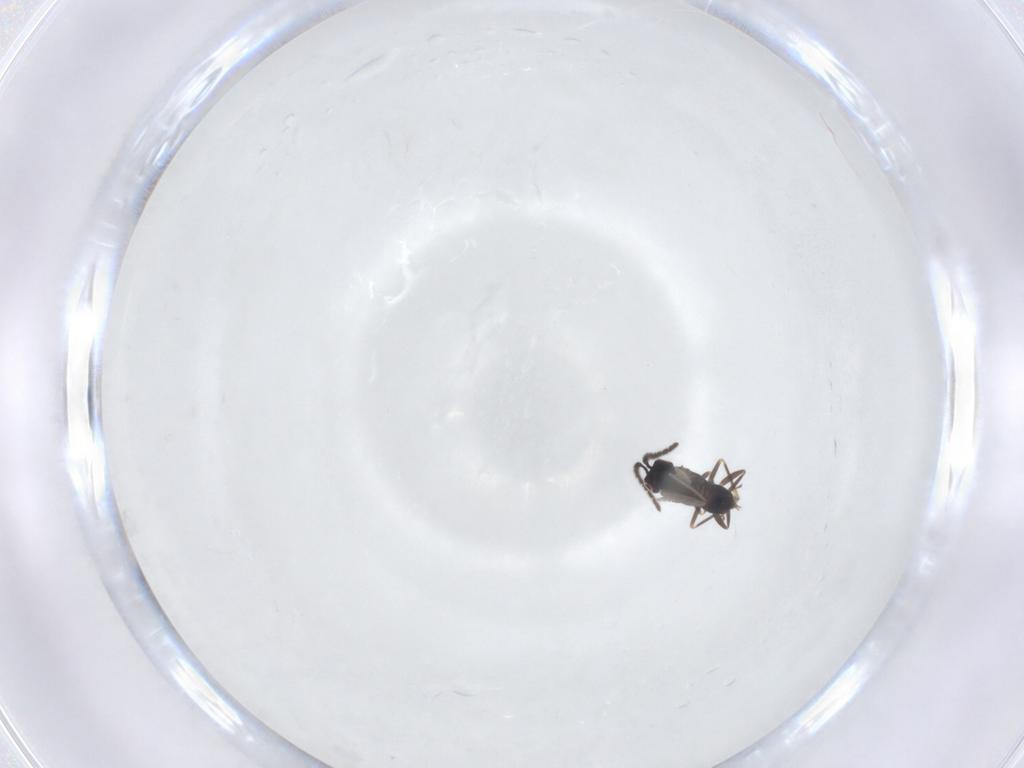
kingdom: Animalia
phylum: Arthropoda
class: Insecta
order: Hymenoptera
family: Encyrtidae
